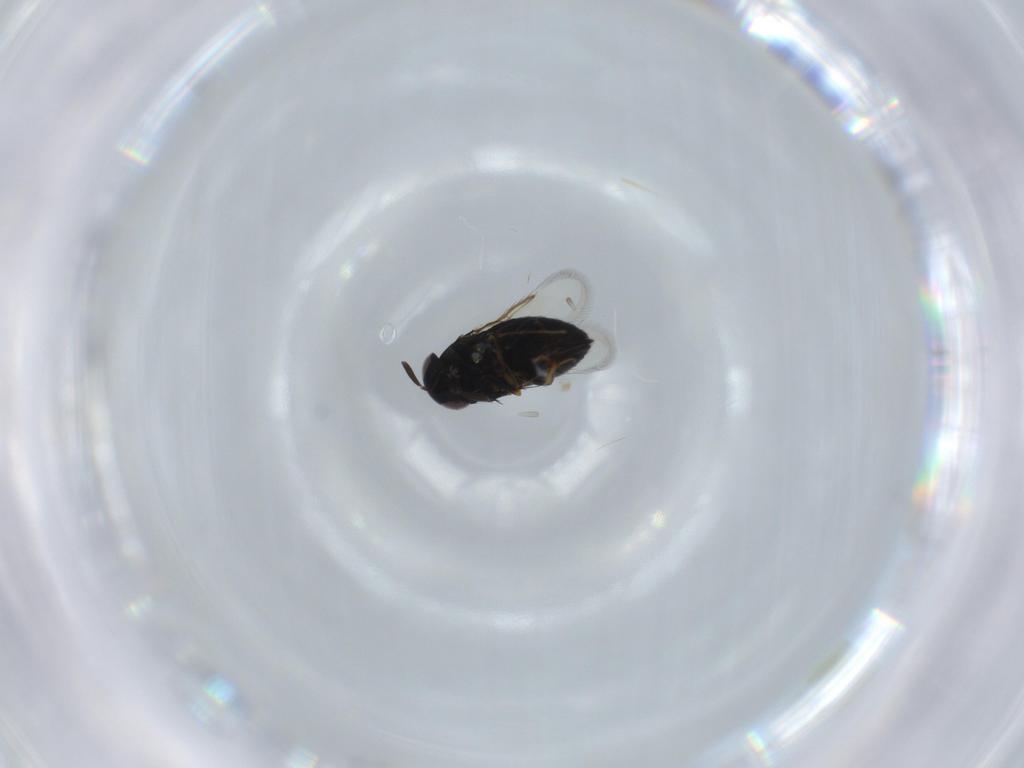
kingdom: Animalia
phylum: Arthropoda
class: Insecta
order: Hymenoptera
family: Signiphoridae
